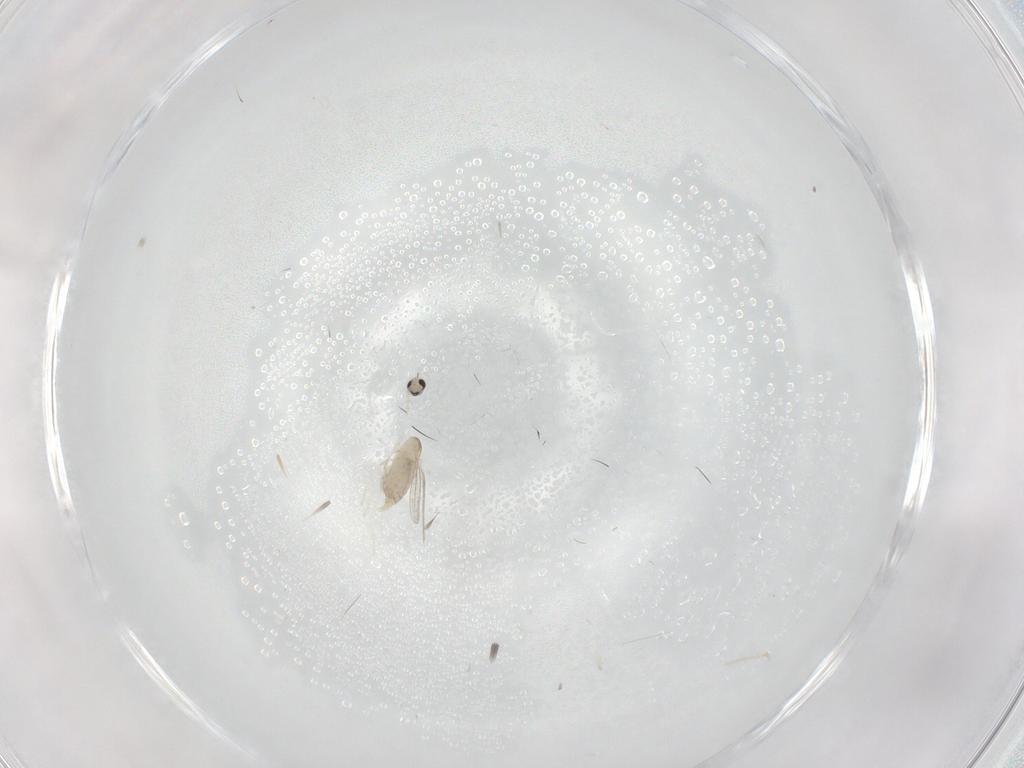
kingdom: Animalia
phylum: Arthropoda
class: Insecta
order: Diptera
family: Cecidomyiidae
